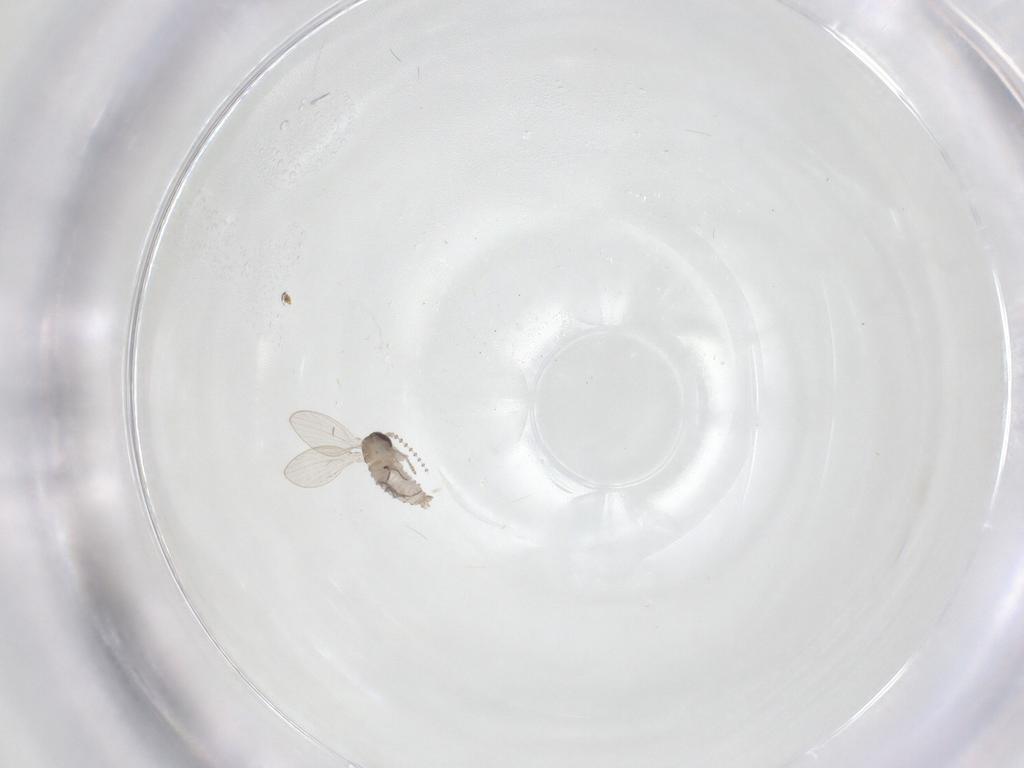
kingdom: Animalia
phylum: Arthropoda
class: Insecta
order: Diptera
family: Psychodidae
